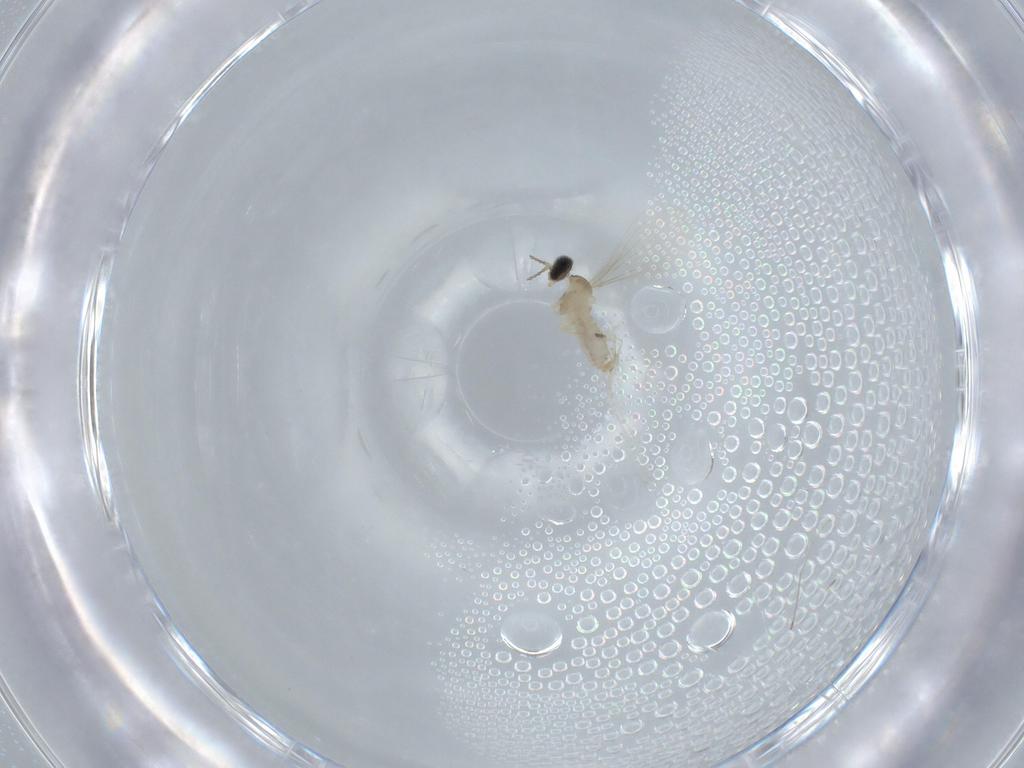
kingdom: Animalia
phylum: Arthropoda
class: Insecta
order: Diptera
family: Cecidomyiidae
